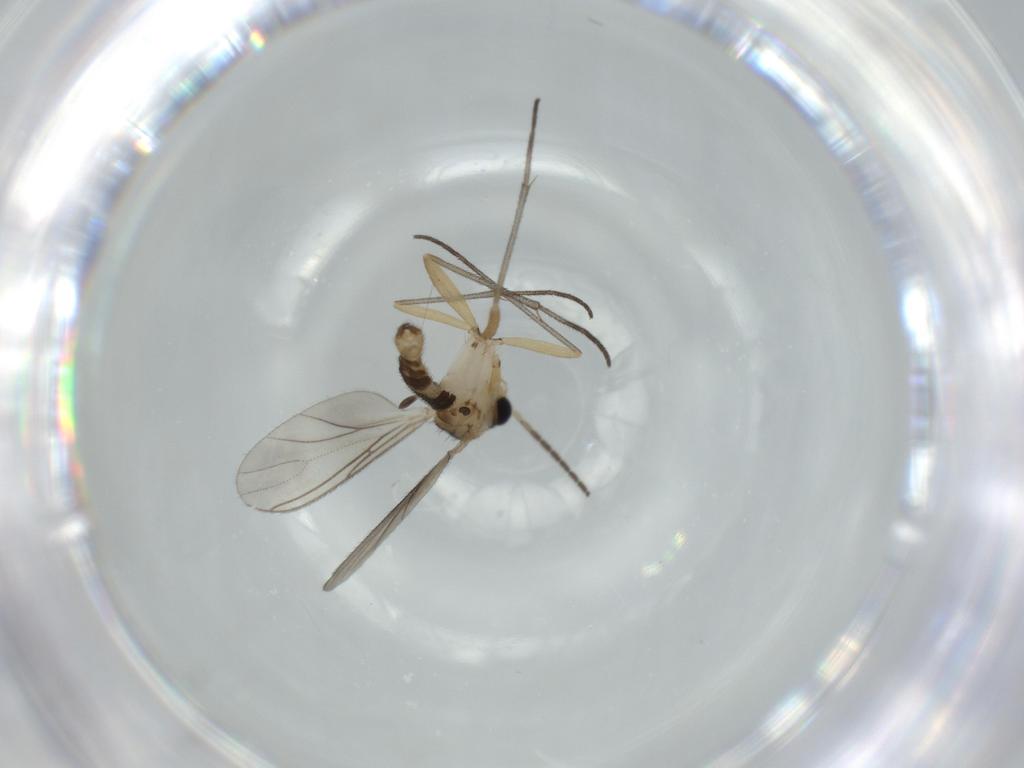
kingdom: Animalia
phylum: Arthropoda
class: Insecta
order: Diptera
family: Sciaridae
